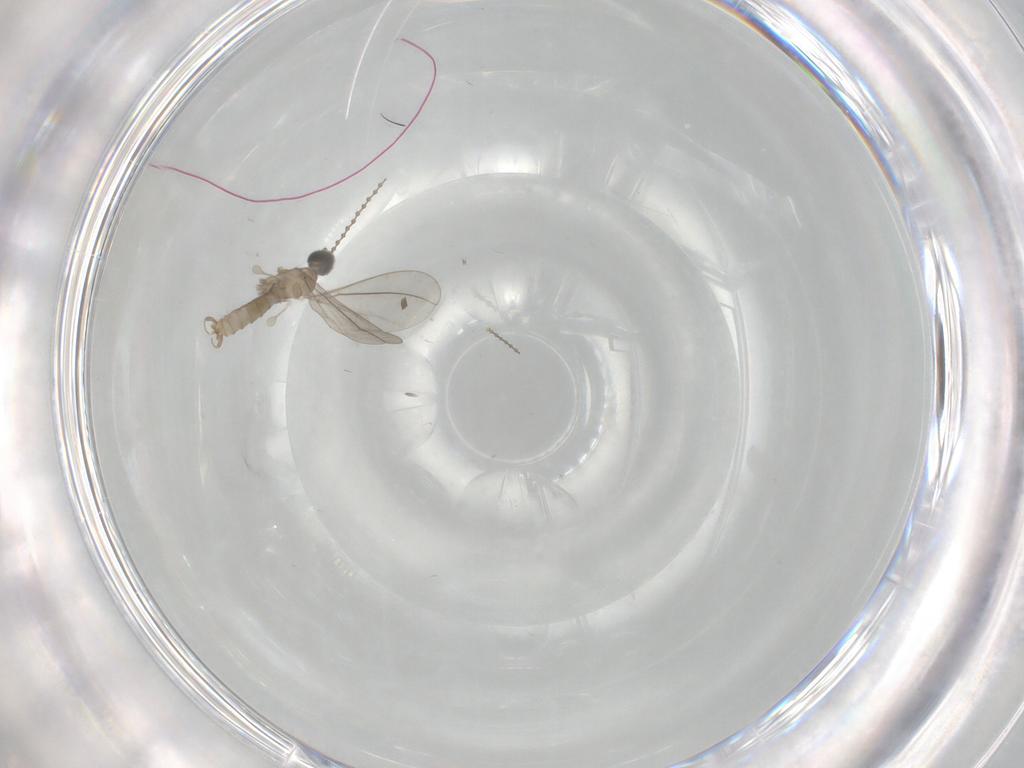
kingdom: Animalia
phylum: Arthropoda
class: Insecta
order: Diptera
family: Cecidomyiidae
